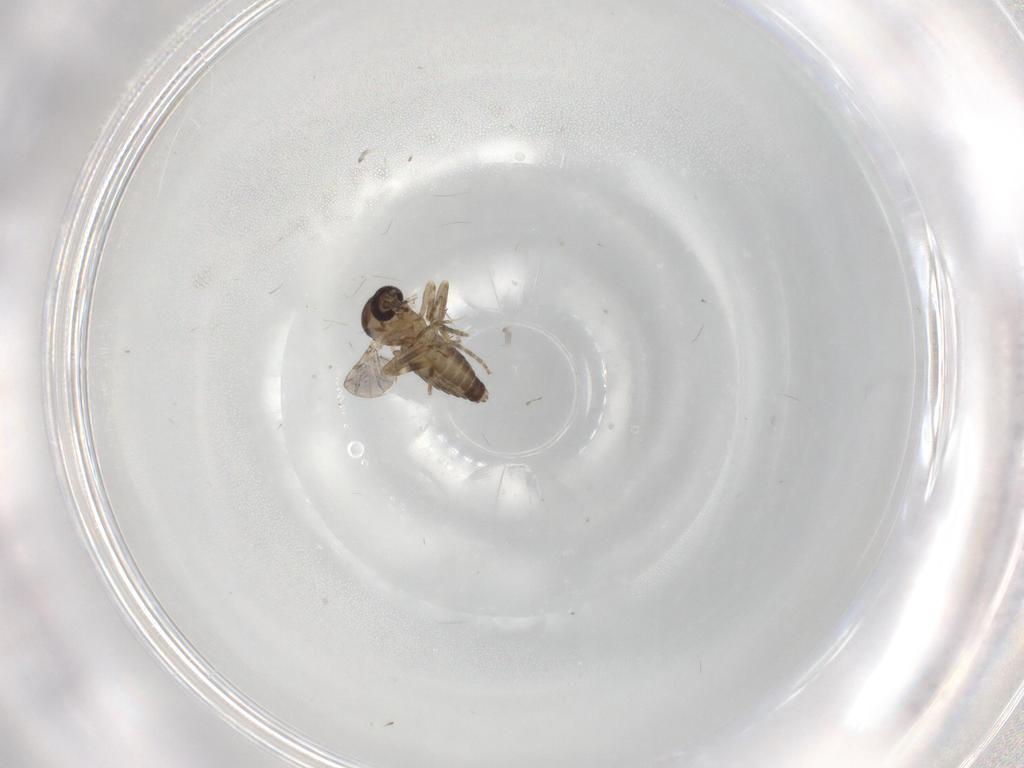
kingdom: Animalia
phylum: Arthropoda
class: Insecta
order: Diptera
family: Ceratopogonidae
